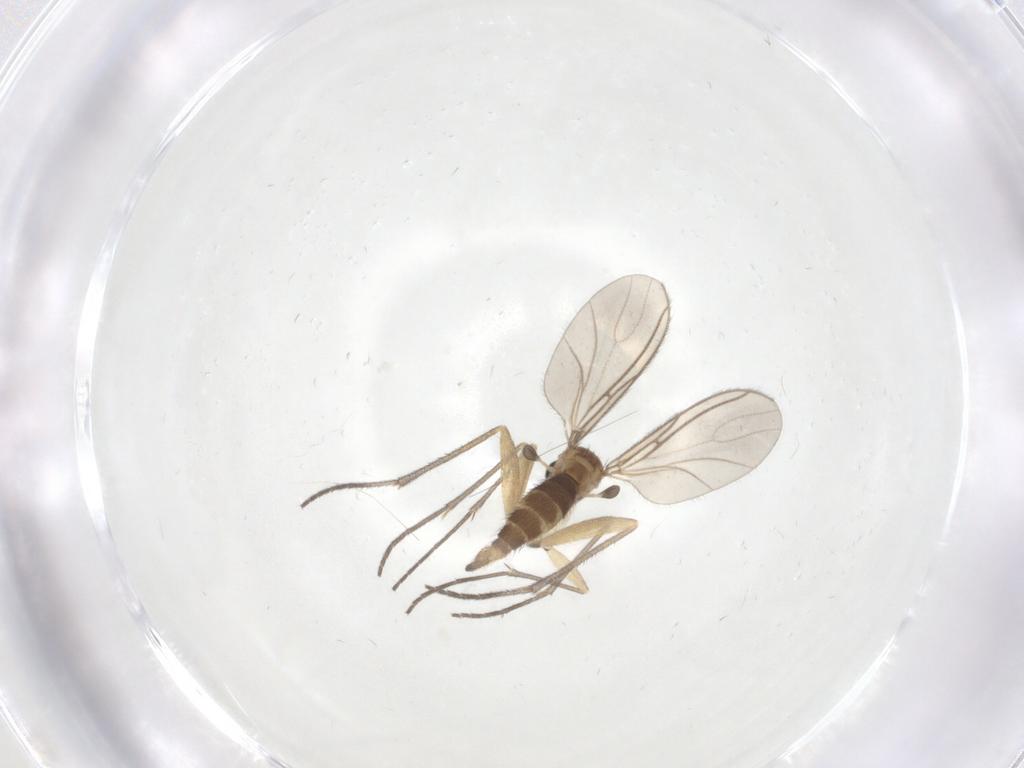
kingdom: Animalia
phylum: Arthropoda
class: Insecta
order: Diptera
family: Sciaridae
